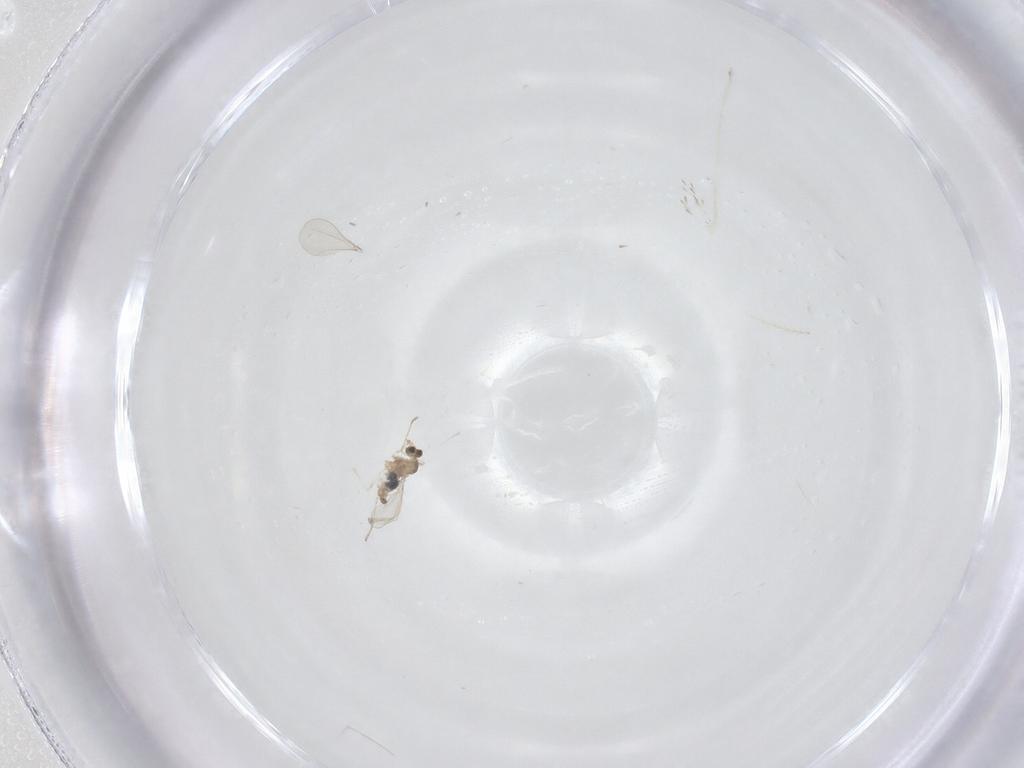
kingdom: Animalia
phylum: Arthropoda
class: Insecta
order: Diptera
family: Cecidomyiidae
